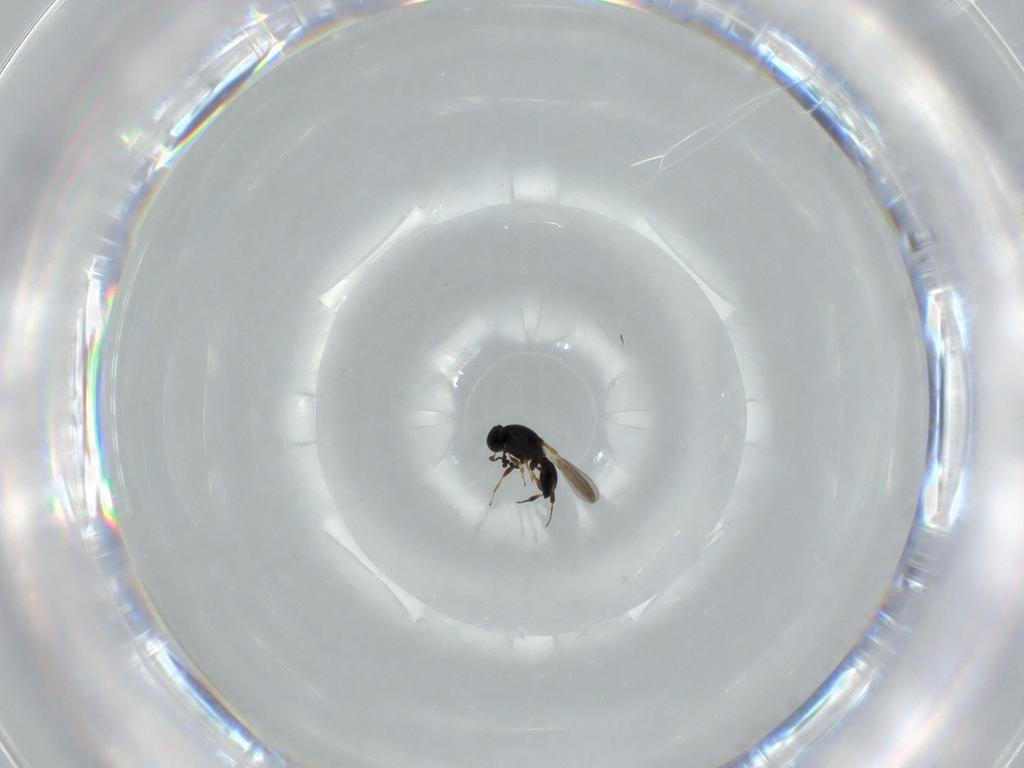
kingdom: Animalia
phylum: Arthropoda
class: Insecta
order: Hymenoptera
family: Platygastridae
